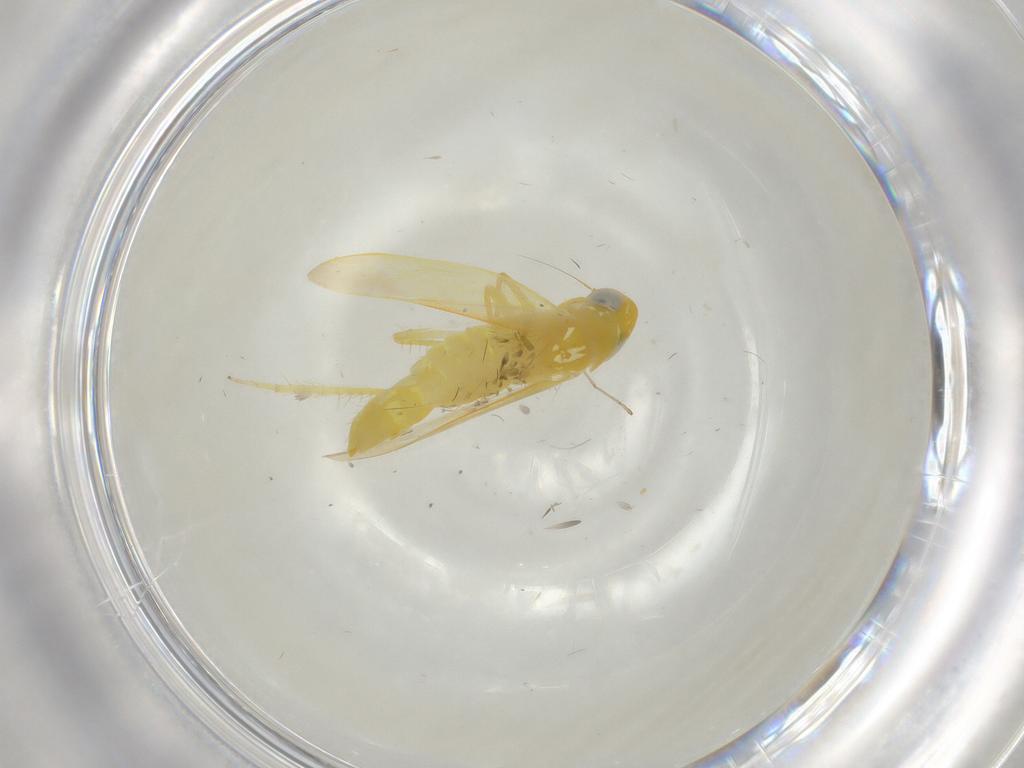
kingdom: Animalia
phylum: Arthropoda
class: Insecta
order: Hemiptera
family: Cicadellidae
